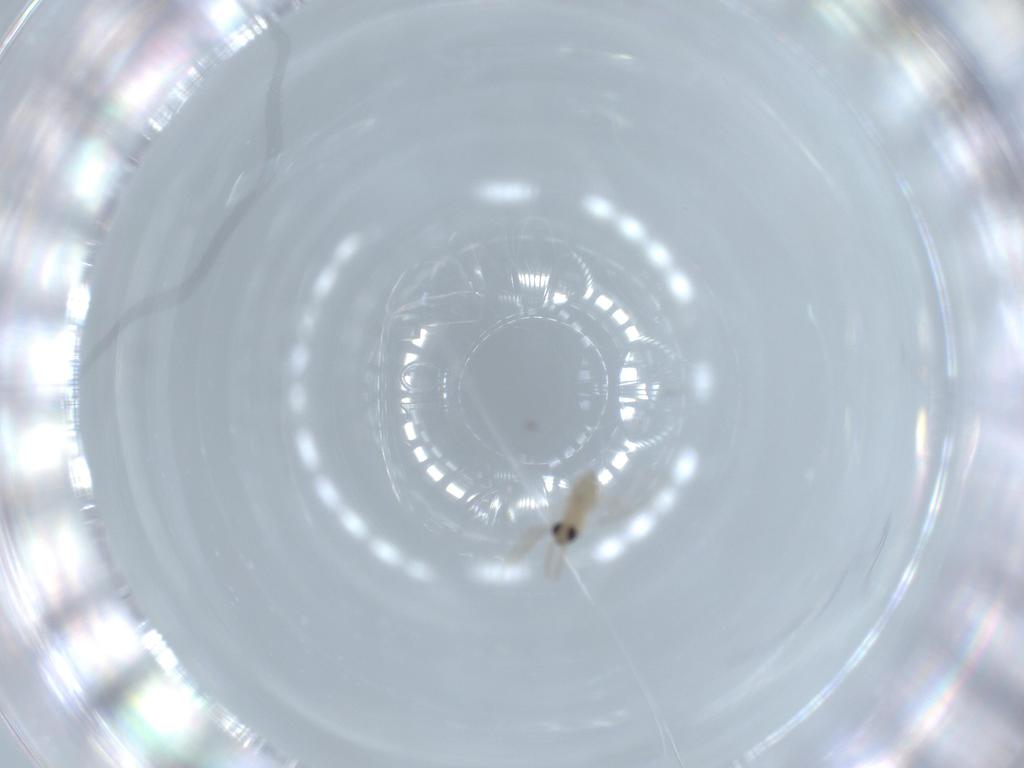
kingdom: Animalia
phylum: Arthropoda
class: Insecta
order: Diptera
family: Cecidomyiidae
